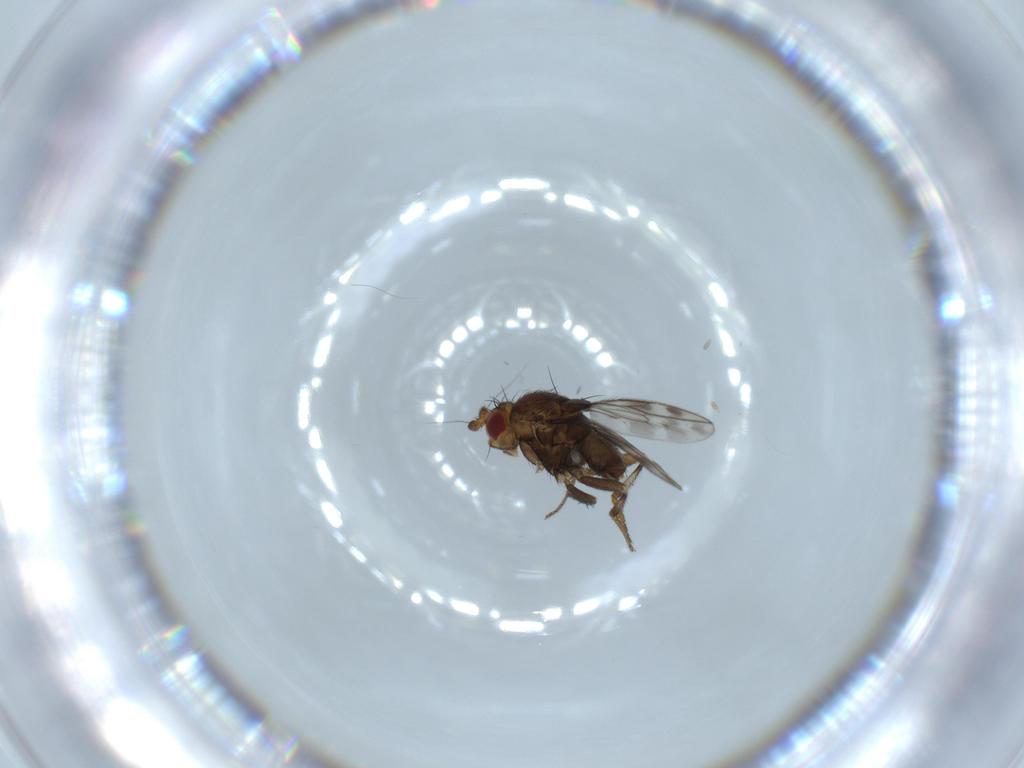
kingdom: Animalia
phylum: Arthropoda
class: Insecta
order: Diptera
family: Sphaeroceridae
